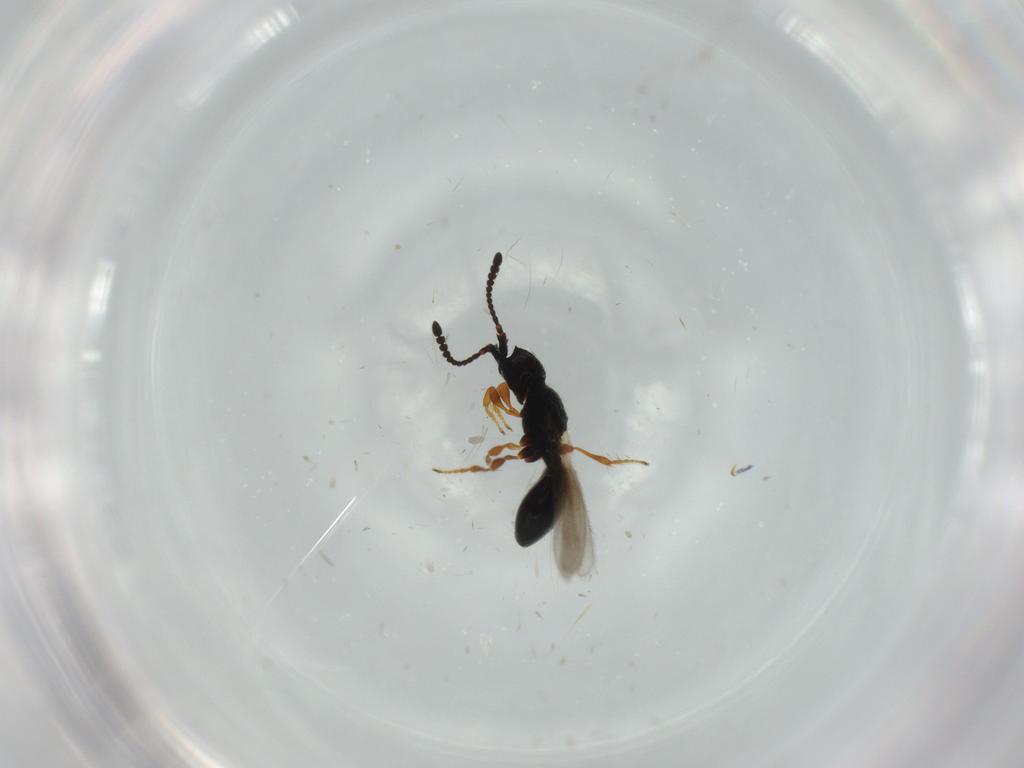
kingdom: Animalia
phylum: Arthropoda
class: Insecta
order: Hymenoptera
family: Diapriidae
